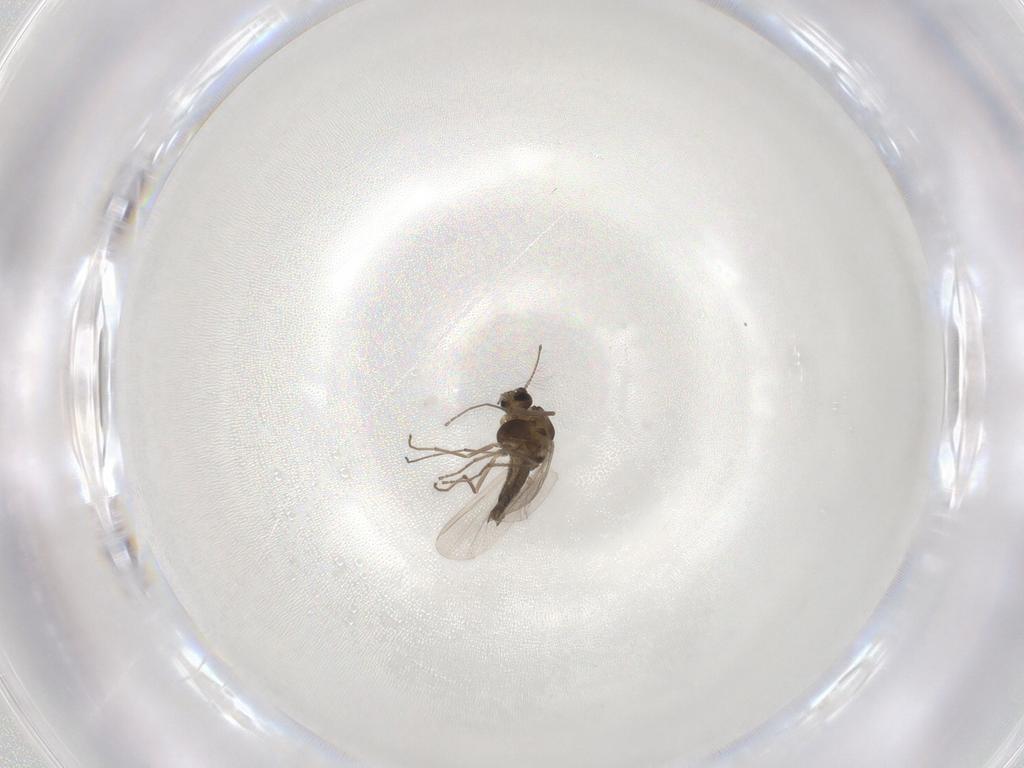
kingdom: Animalia
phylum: Arthropoda
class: Insecta
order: Diptera
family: Chironomidae
